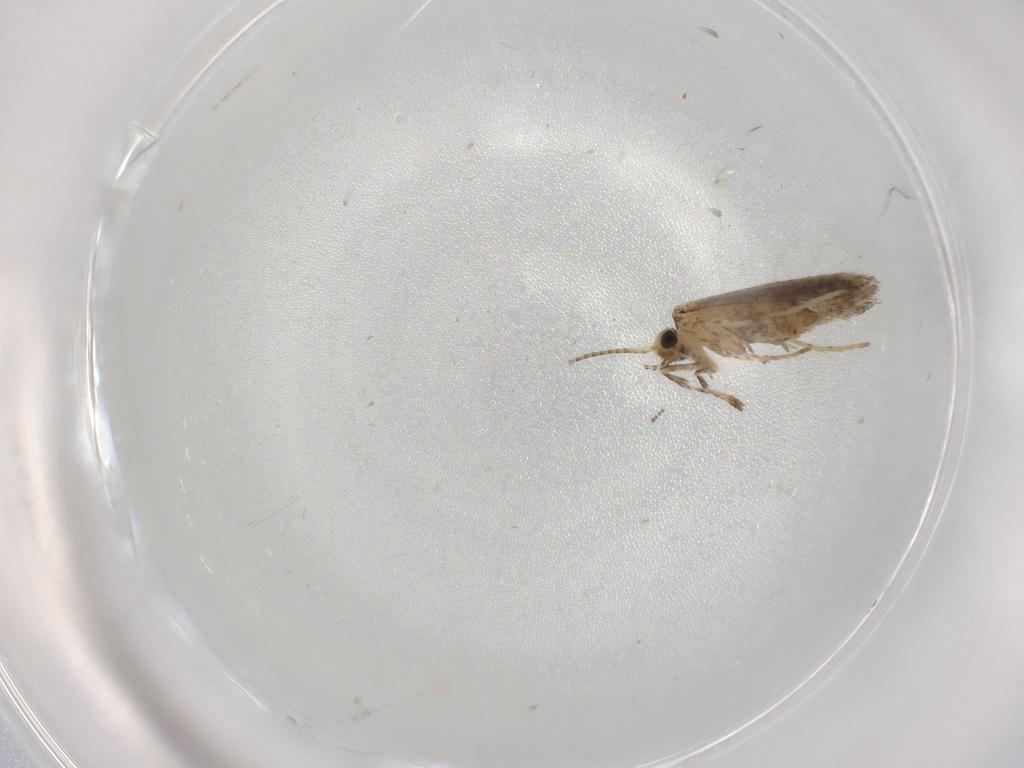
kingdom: Animalia
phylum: Arthropoda
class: Insecta
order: Lepidoptera
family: Gracillariidae
